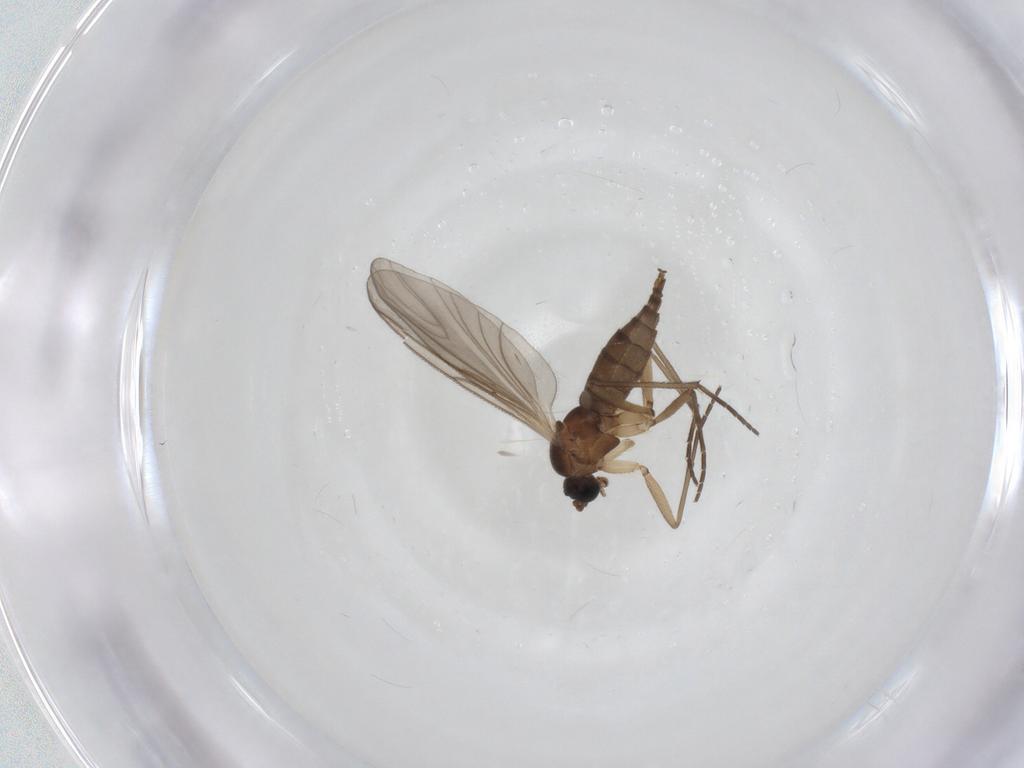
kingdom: Animalia
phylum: Arthropoda
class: Insecta
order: Diptera
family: Sciaridae
